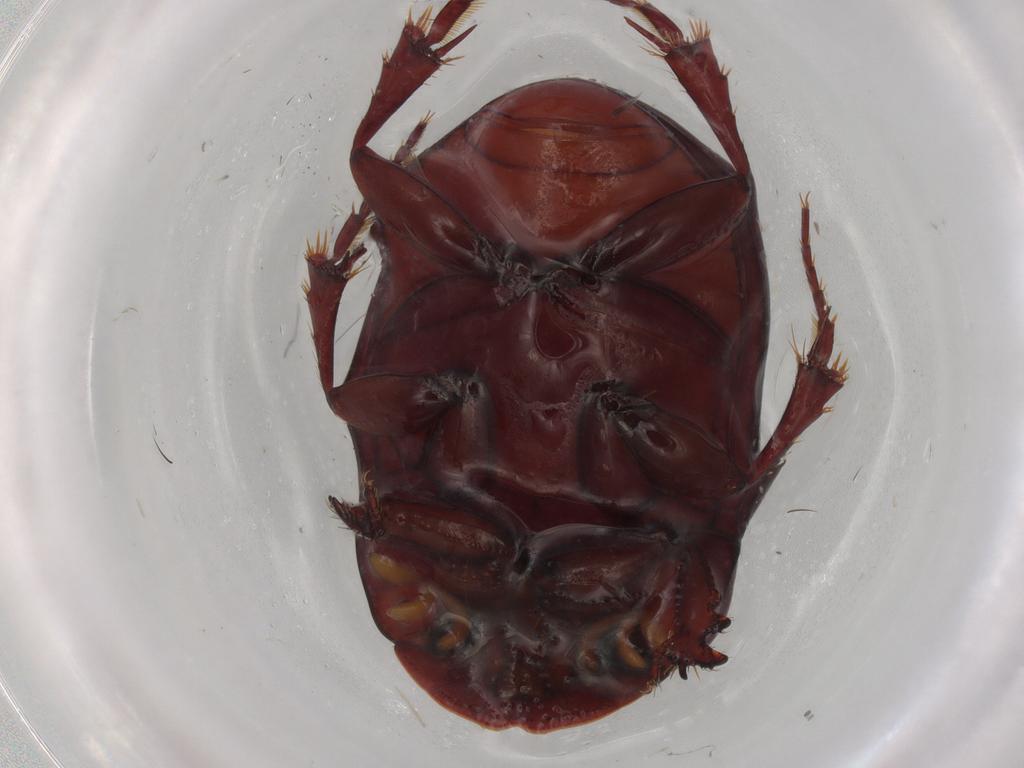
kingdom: Animalia
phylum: Arthropoda
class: Insecta
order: Coleoptera
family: Staphylinidae
